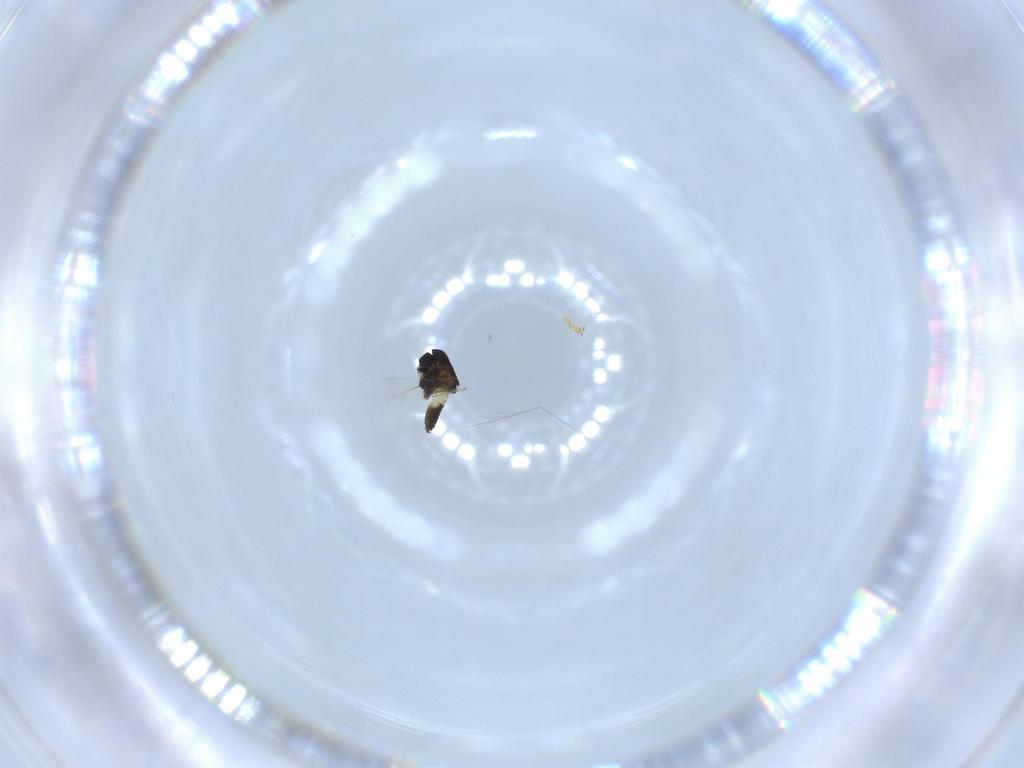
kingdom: Animalia
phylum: Arthropoda
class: Insecta
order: Diptera
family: Chironomidae
